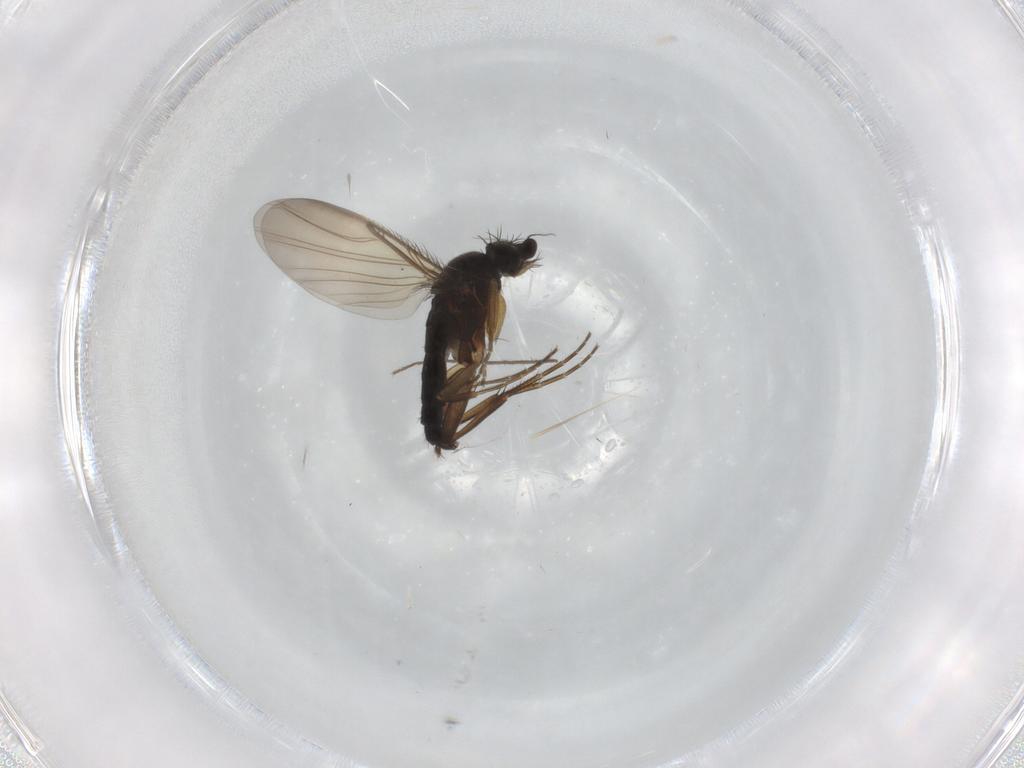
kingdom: Animalia
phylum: Arthropoda
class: Insecta
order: Diptera
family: Phoridae
